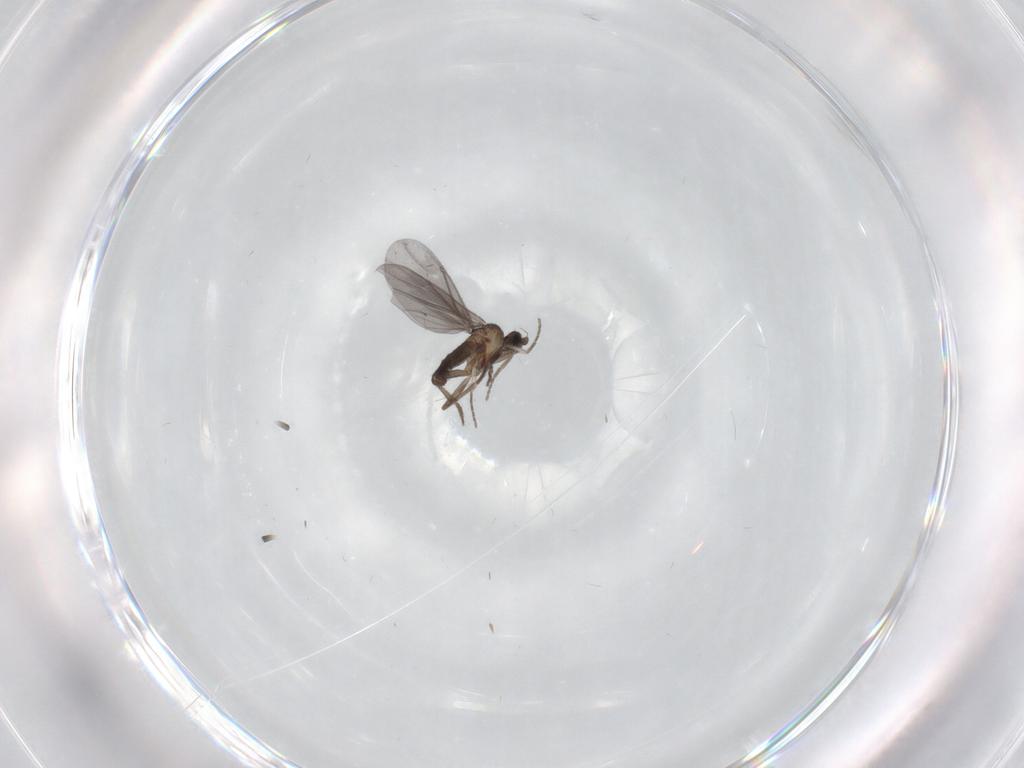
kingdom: Animalia
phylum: Arthropoda
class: Insecta
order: Diptera
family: Phoridae
